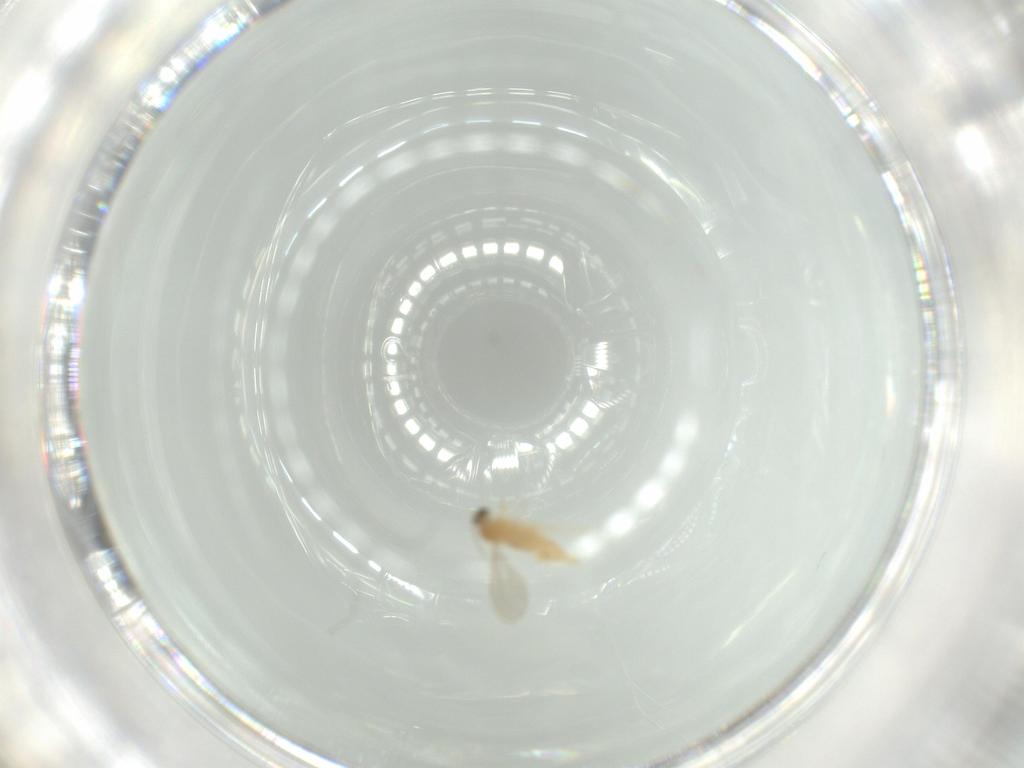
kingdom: Animalia
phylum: Arthropoda
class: Insecta
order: Diptera
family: Cecidomyiidae
